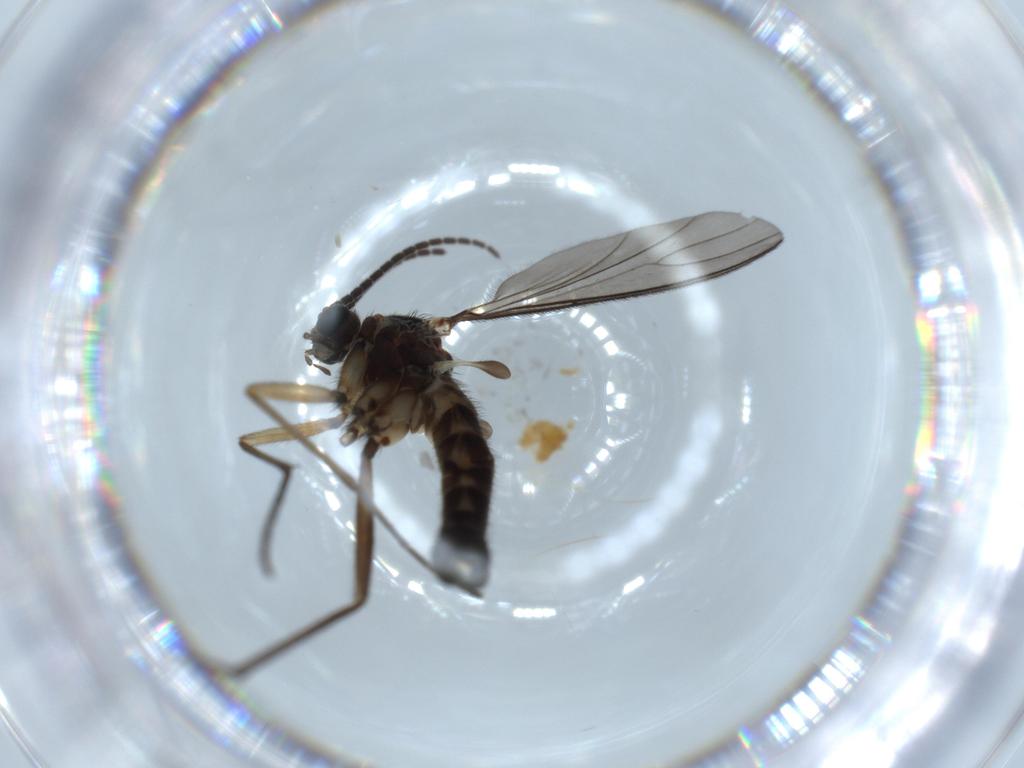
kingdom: Animalia
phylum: Arthropoda
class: Insecta
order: Diptera
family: Sciaridae
